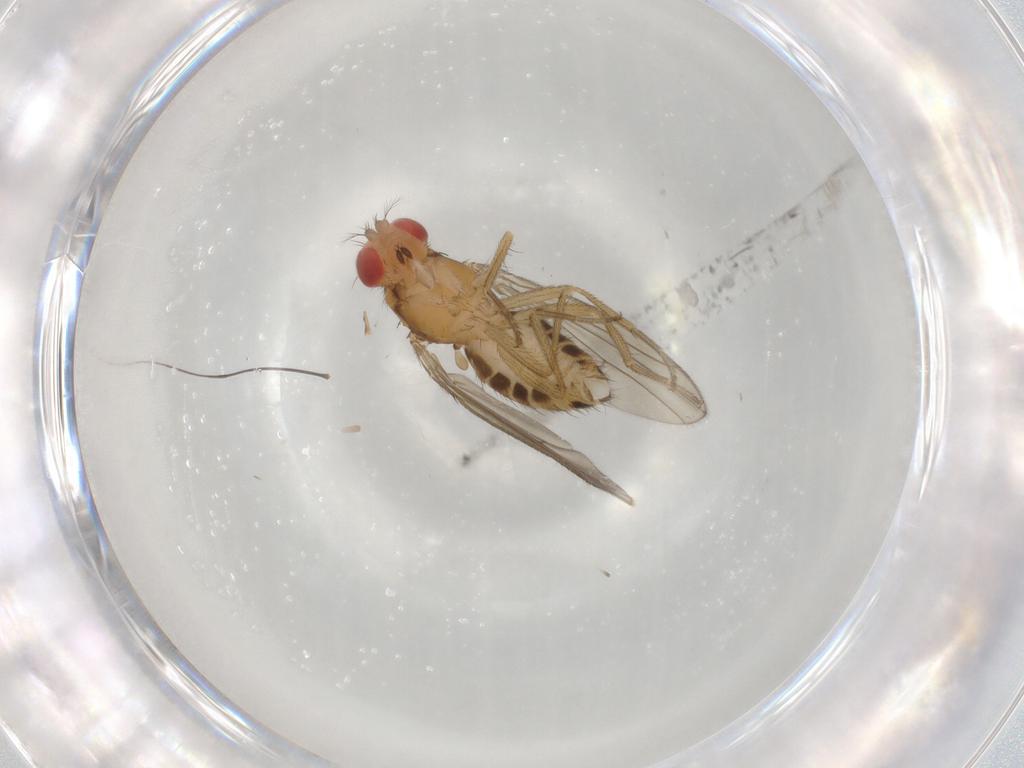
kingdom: Animalia
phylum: Arthropoda
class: Insecta
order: Diptera
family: Drosophilidae
